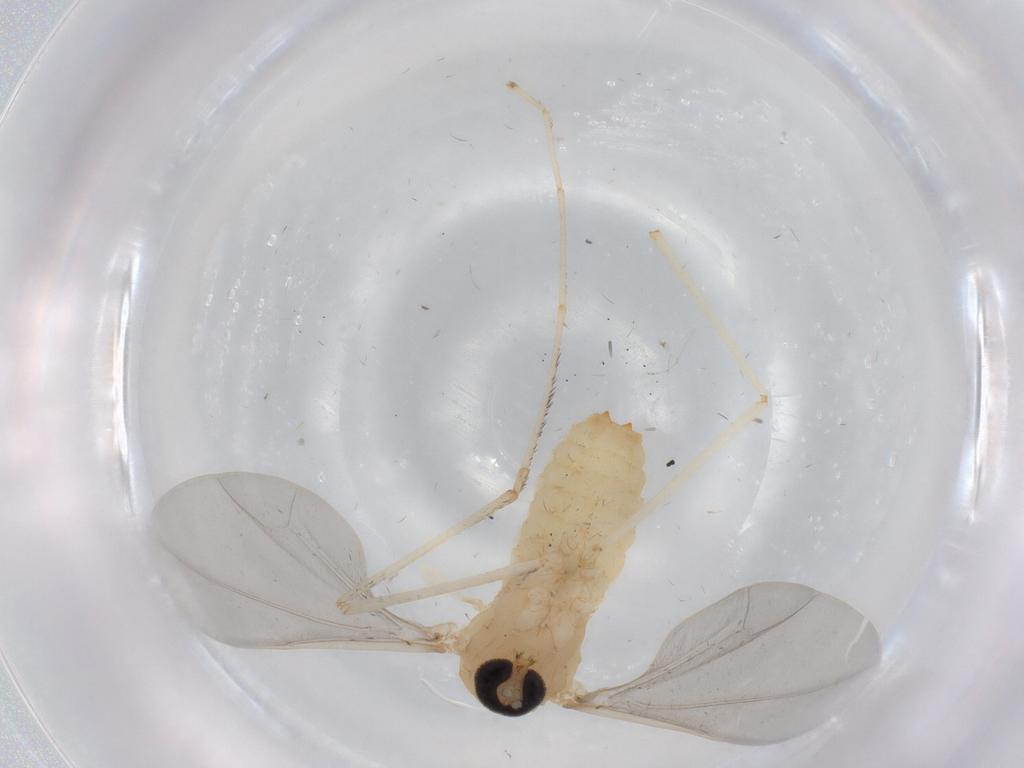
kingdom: Animalia
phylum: Arthropoda
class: Insecta
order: Diptera
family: Cecidomyiidae
